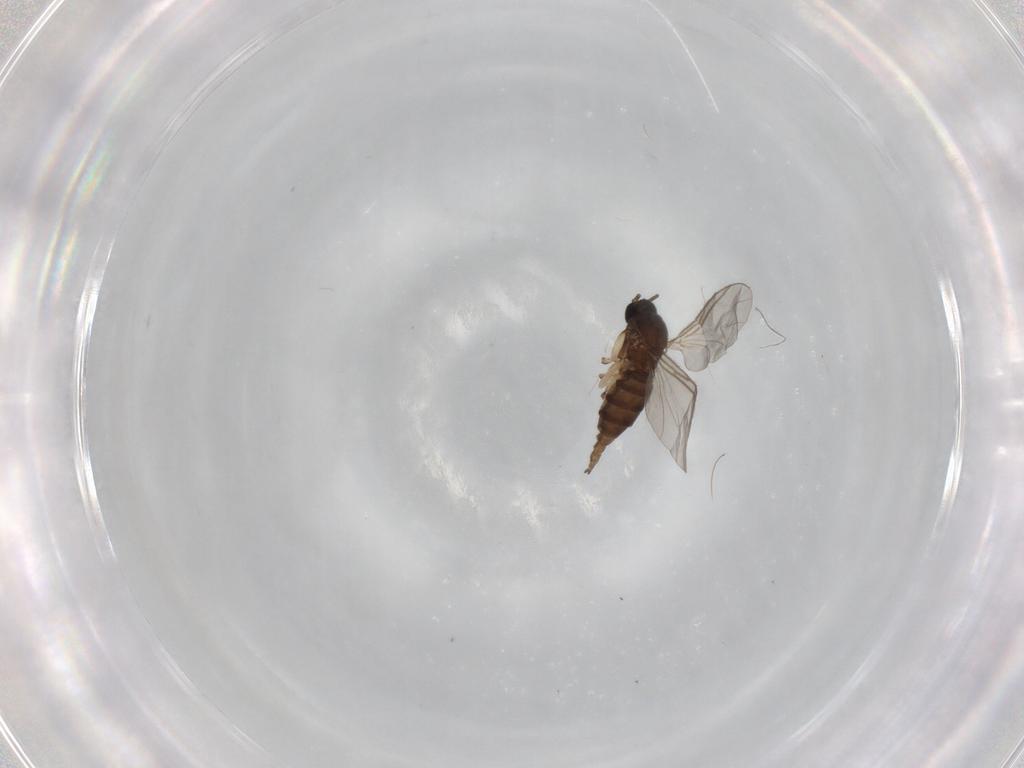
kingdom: Animalia
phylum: Arthropoda
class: Insecta
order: Diptera
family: Sciaridae
